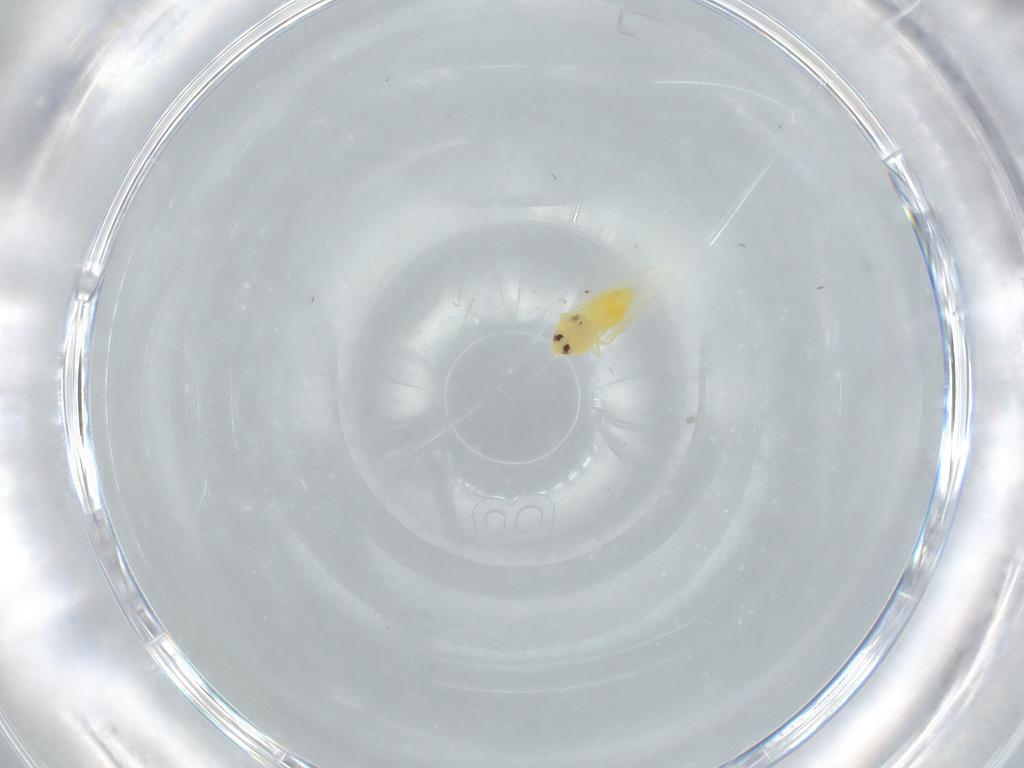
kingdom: Animalia
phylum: Arthropoda
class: Insecta
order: Hemiptera
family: Aleyrodidae
